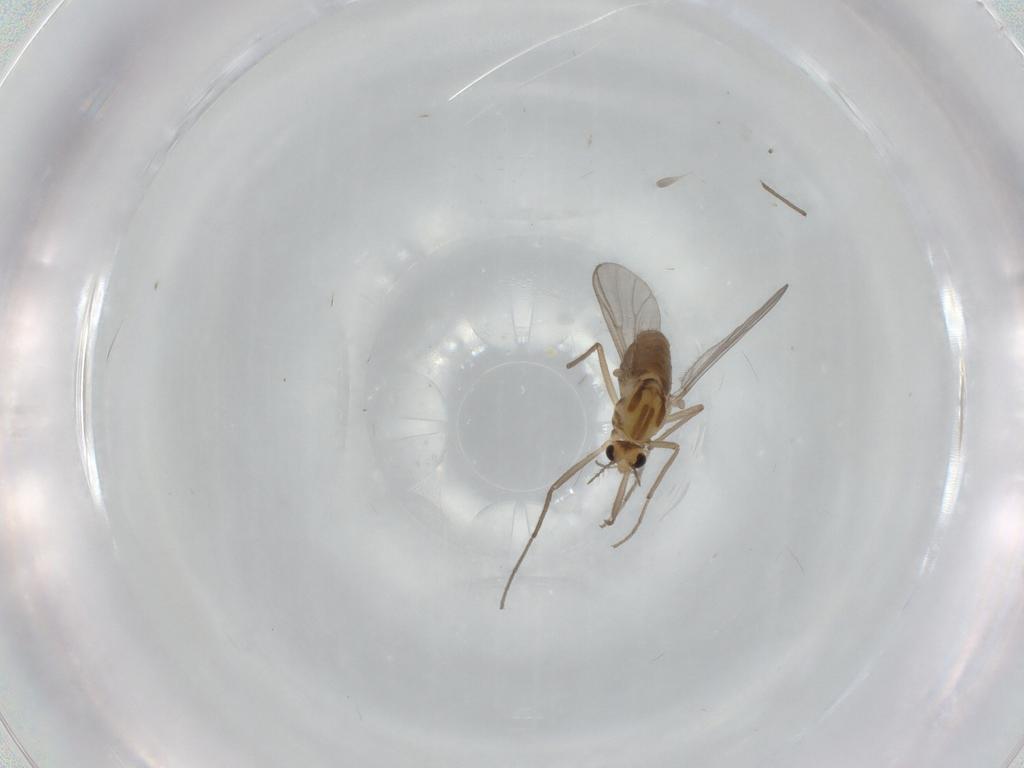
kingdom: Animalia
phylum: Arthropoda
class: Insecta
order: Diptera
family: Chironomidae
